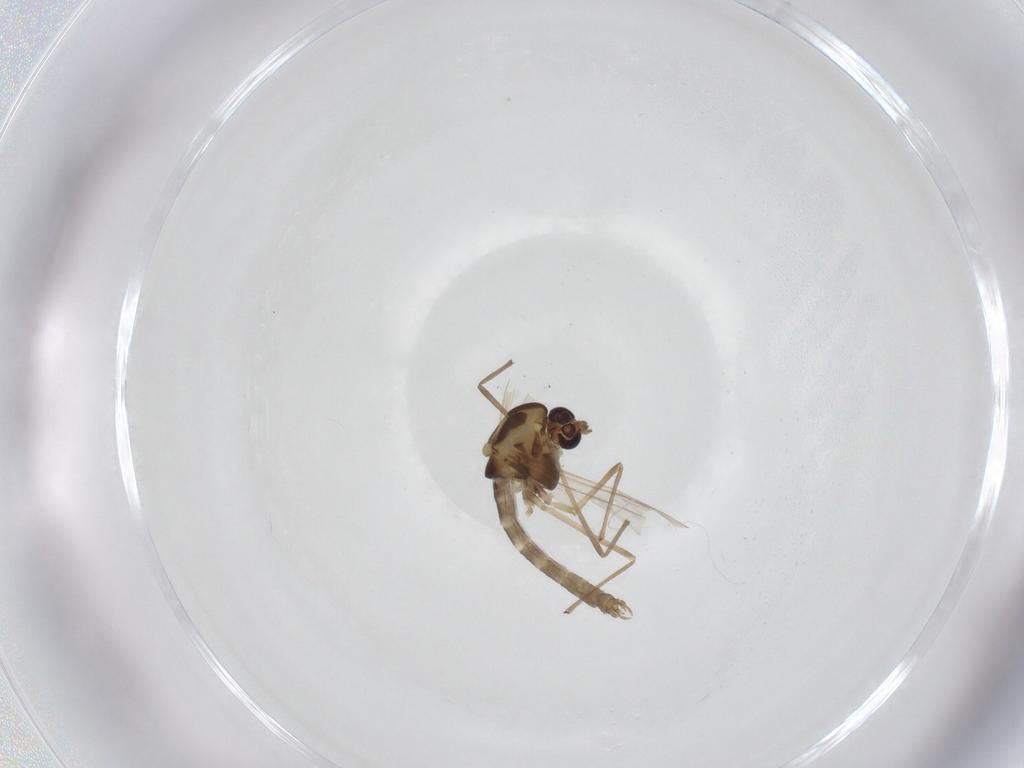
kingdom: Animalia
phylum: Arthropoda
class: Insecta
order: Diptera
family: Chironomidae
